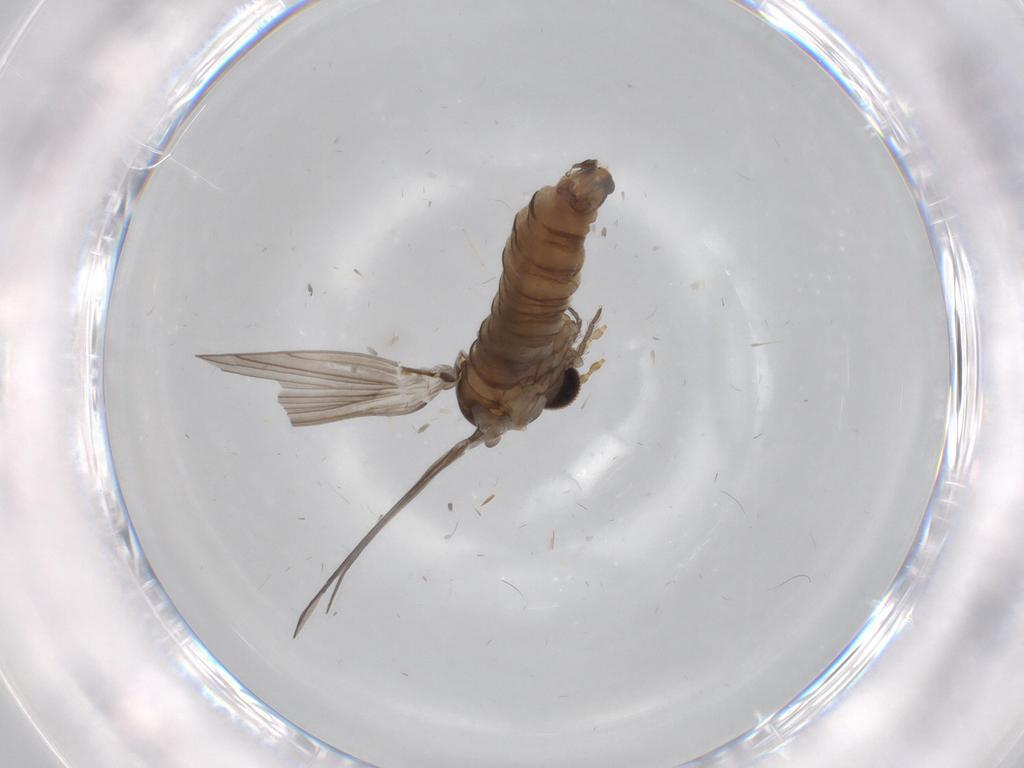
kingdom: Animalia
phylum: Arthropoda
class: Insecta
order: Diptera
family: Psychodidae
